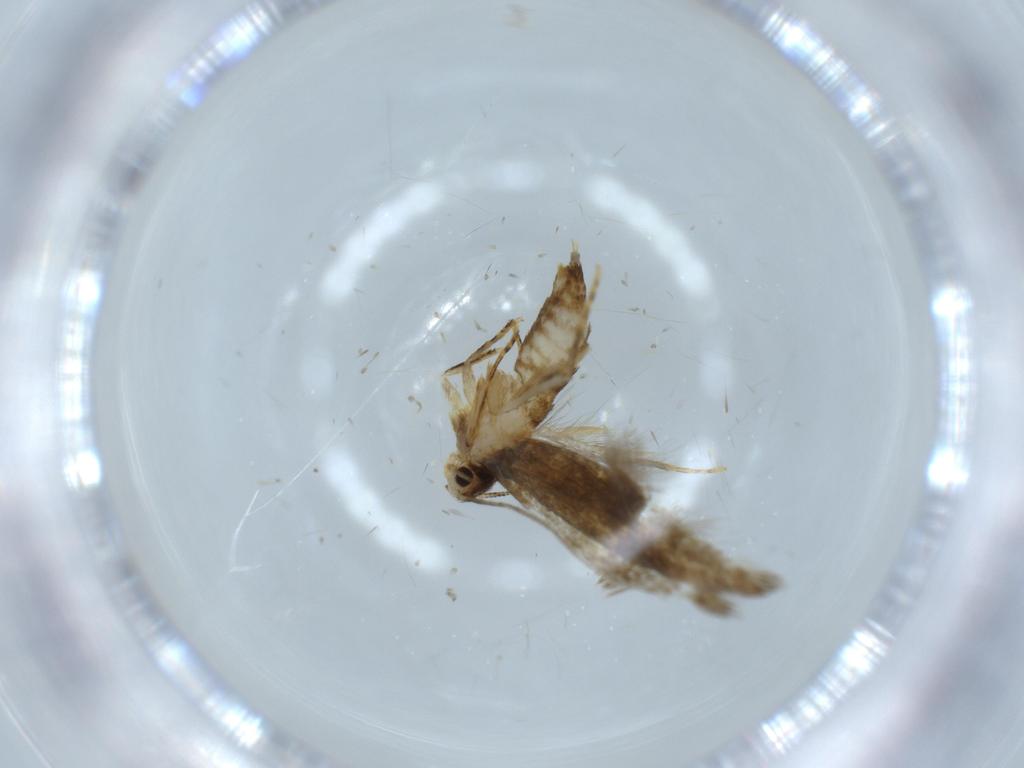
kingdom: Animalia
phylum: Arthropoda
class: Insecta
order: Lepidoptera
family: Tineidae
